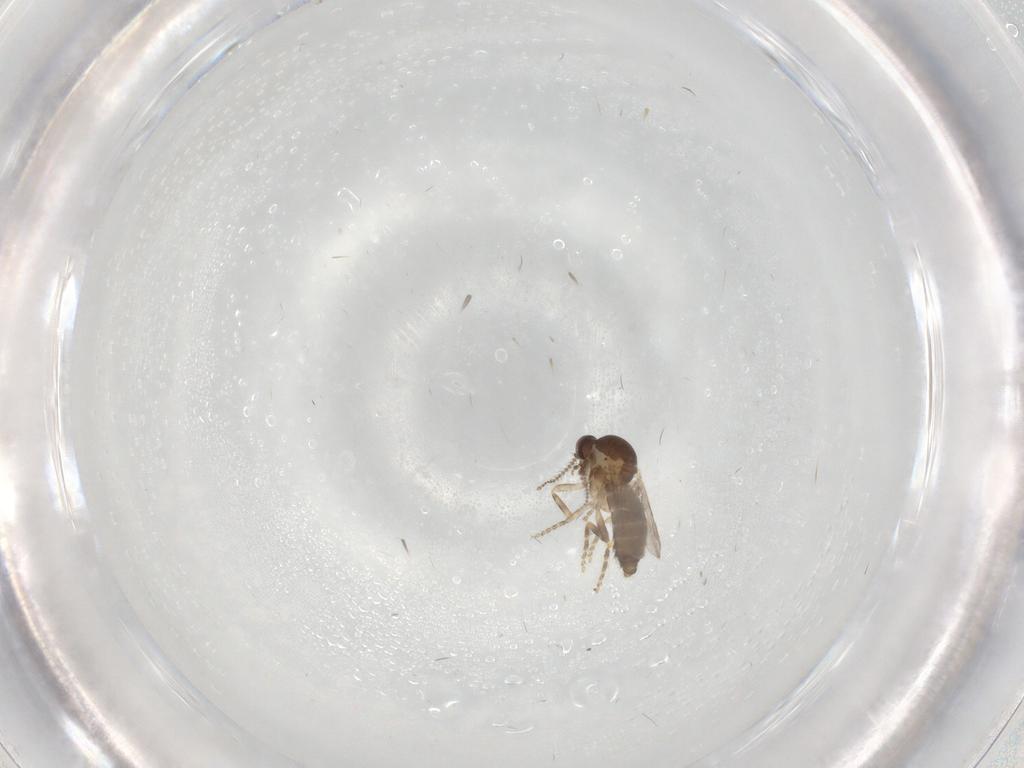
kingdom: Animalia
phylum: Arthropoda
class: Insecta
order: Diptera
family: Ceratopogonidae
